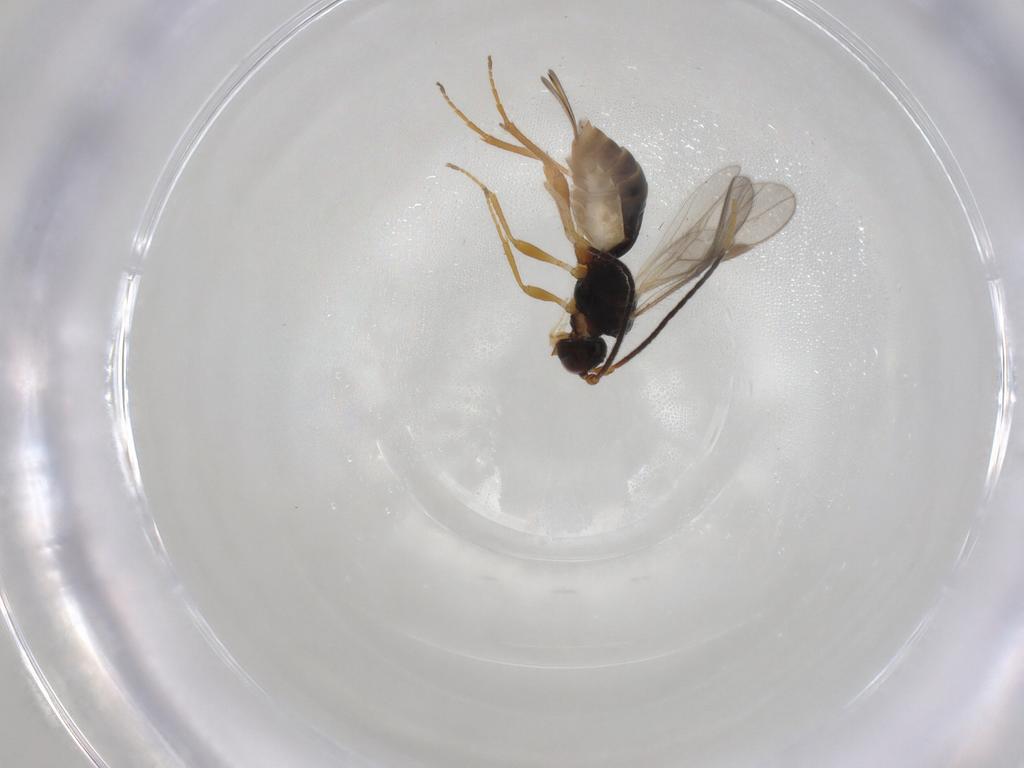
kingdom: Animalia
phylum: Arthropoda
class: Insecta
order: Hymenoptera
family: Braconidae
